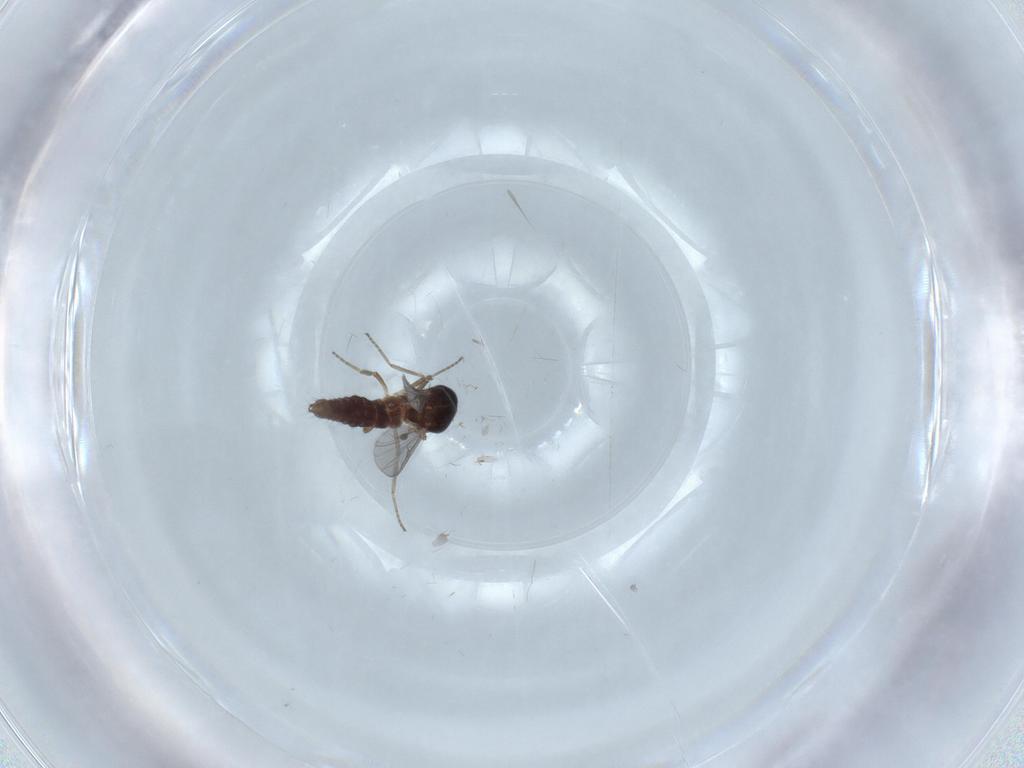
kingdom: Animalia
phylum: Arthropoda
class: Insecta
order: Diptera
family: Ceratopogonidae
